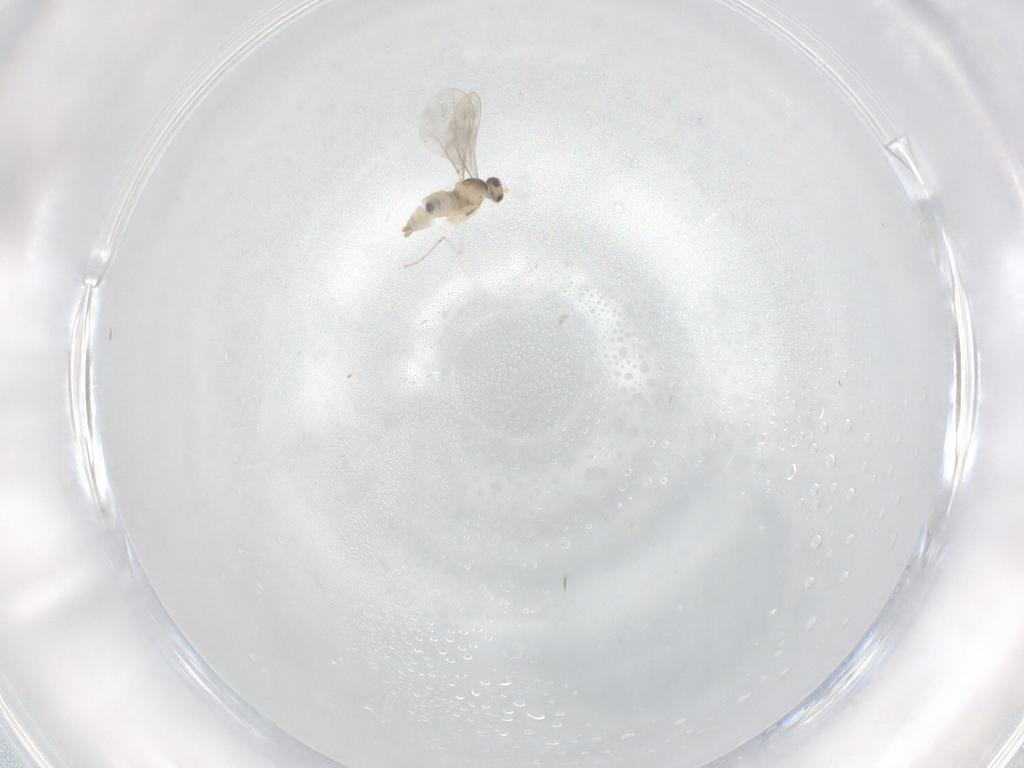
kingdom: Animalia
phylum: Arthropoda
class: Insecta
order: Diptera
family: Cecidomyiidae
